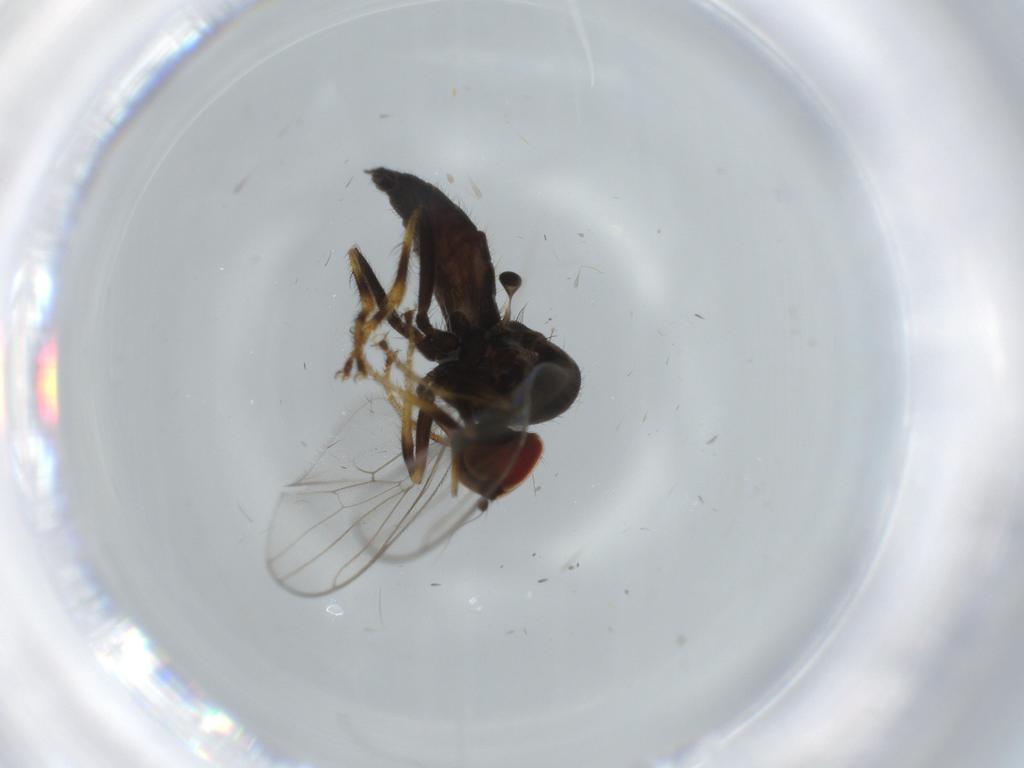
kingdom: Animalia
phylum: Arthropoda
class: Insecta
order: Diptera
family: Hybotidae
